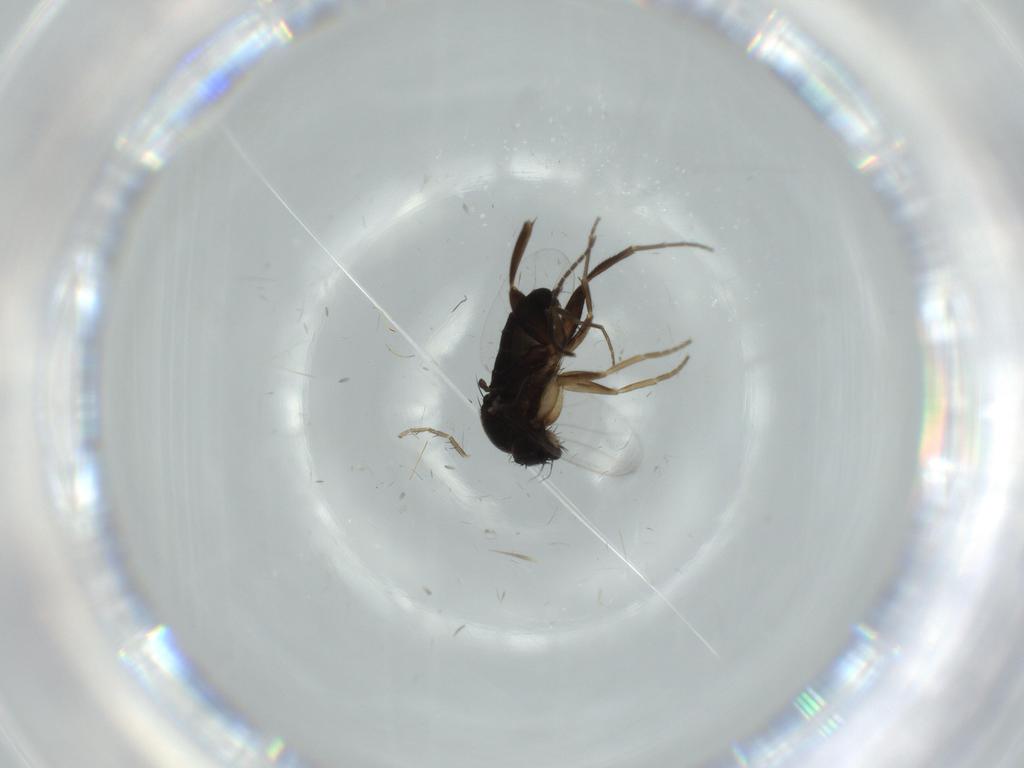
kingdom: Animalia
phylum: Arthropoda
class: Insecta
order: Diptera
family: Phoridae
